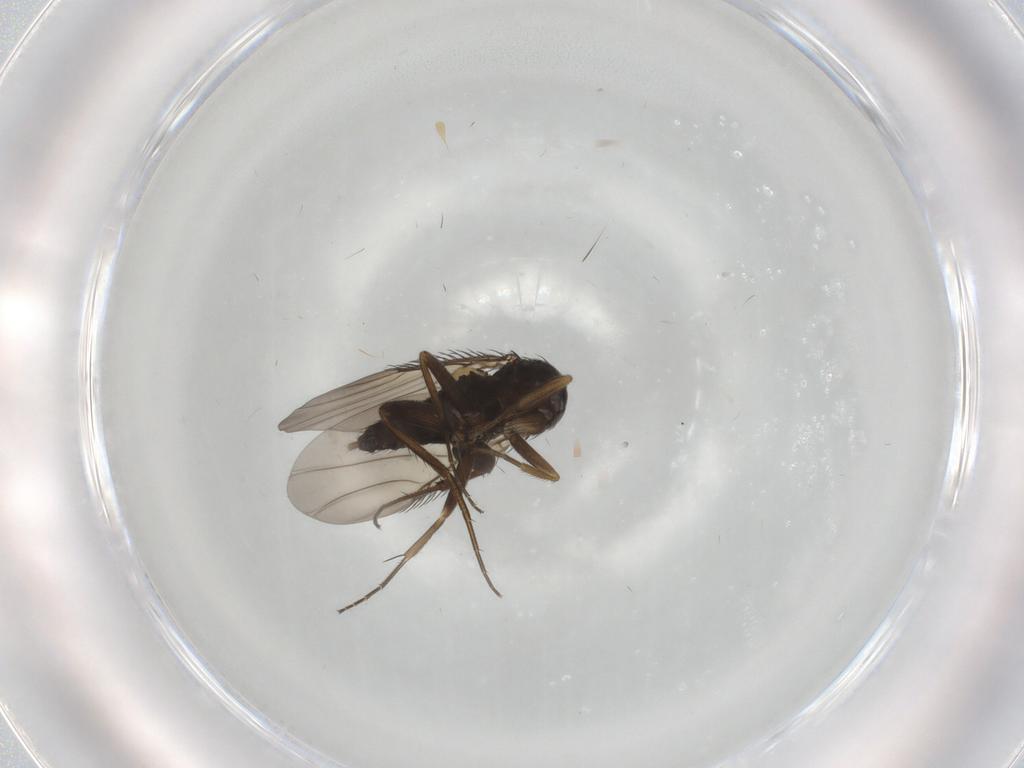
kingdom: Animalia
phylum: Arthropoda
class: Insecta
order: Diptera
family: Phoridae
